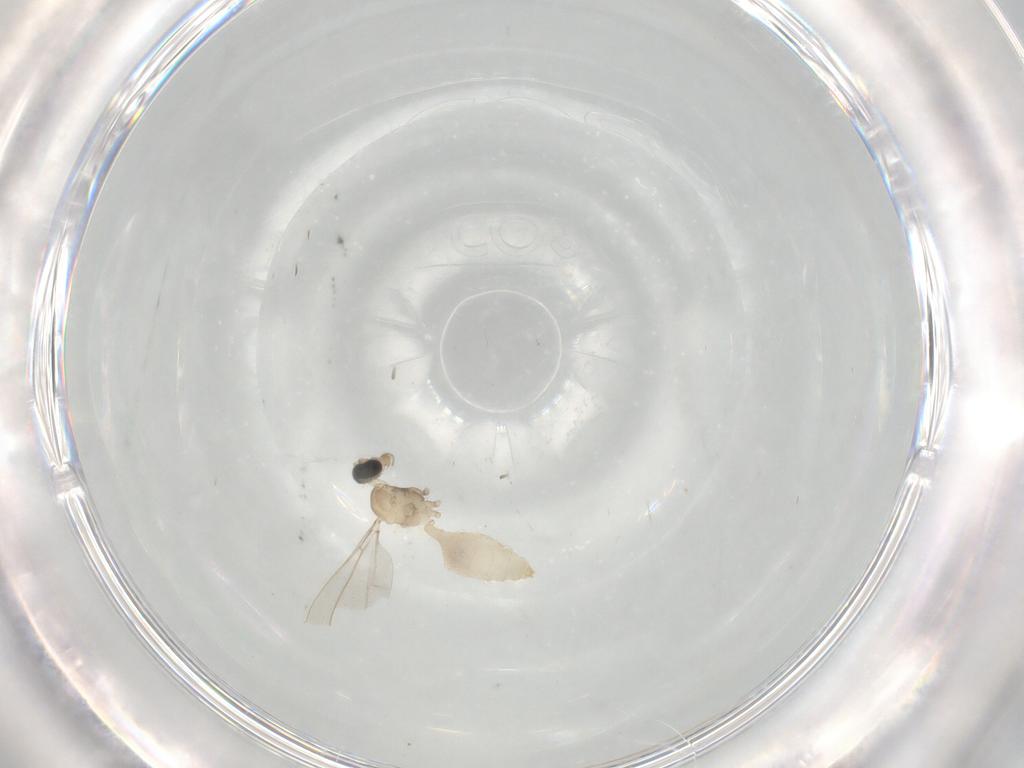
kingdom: Animalia
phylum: Arthropoda
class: Insecta
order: Diptera
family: Cecidomyiidae
